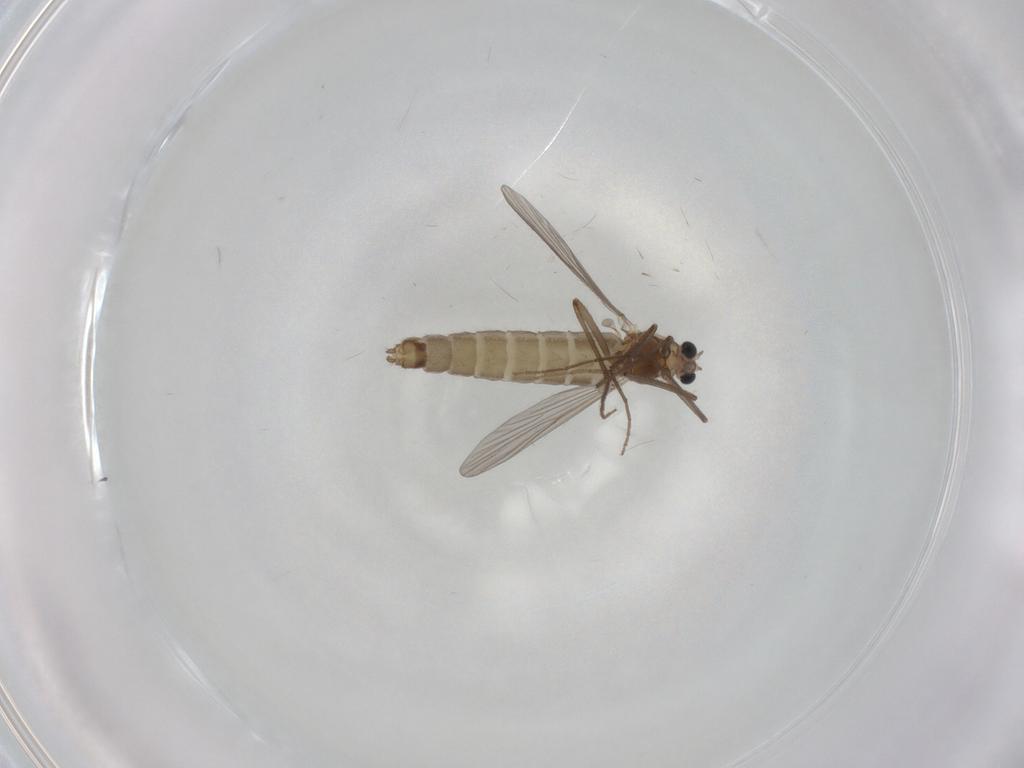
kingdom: Animalia
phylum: Arthropoda
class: Insecta
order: Diptera
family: Chironomidae
